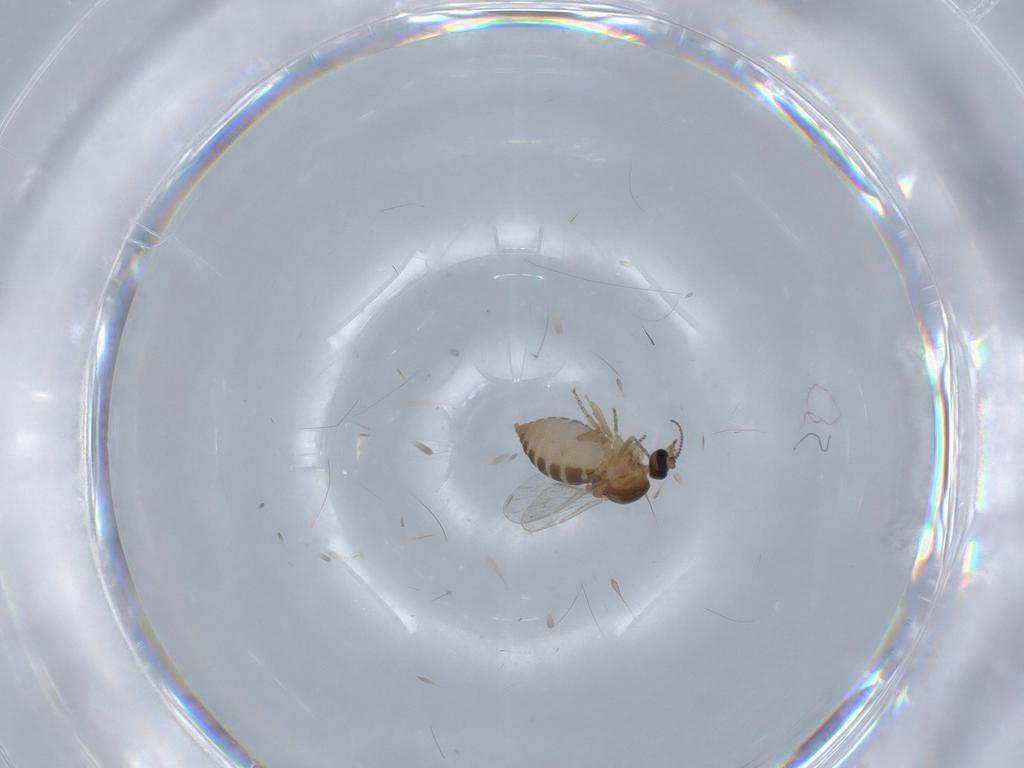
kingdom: Animalia
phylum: Arthropoda
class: Insecta
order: Diptera
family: Ceratopogonidae
